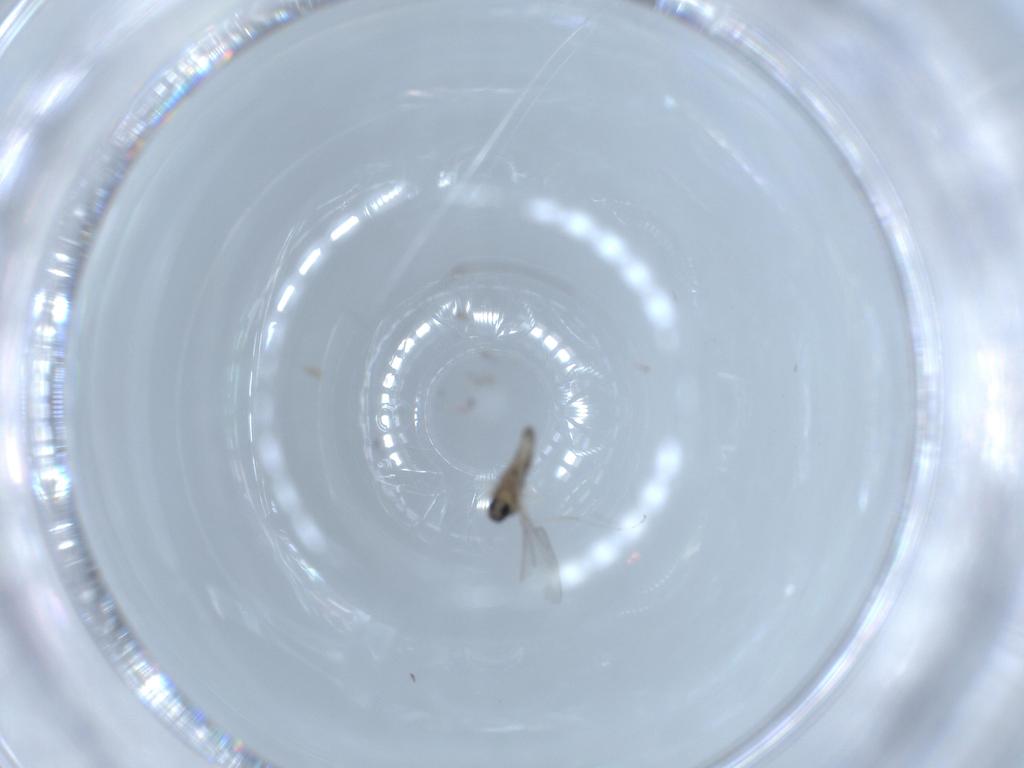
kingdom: Animalia
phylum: Arthropoda
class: Insecta
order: Diptera
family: Cecidomyiidae
